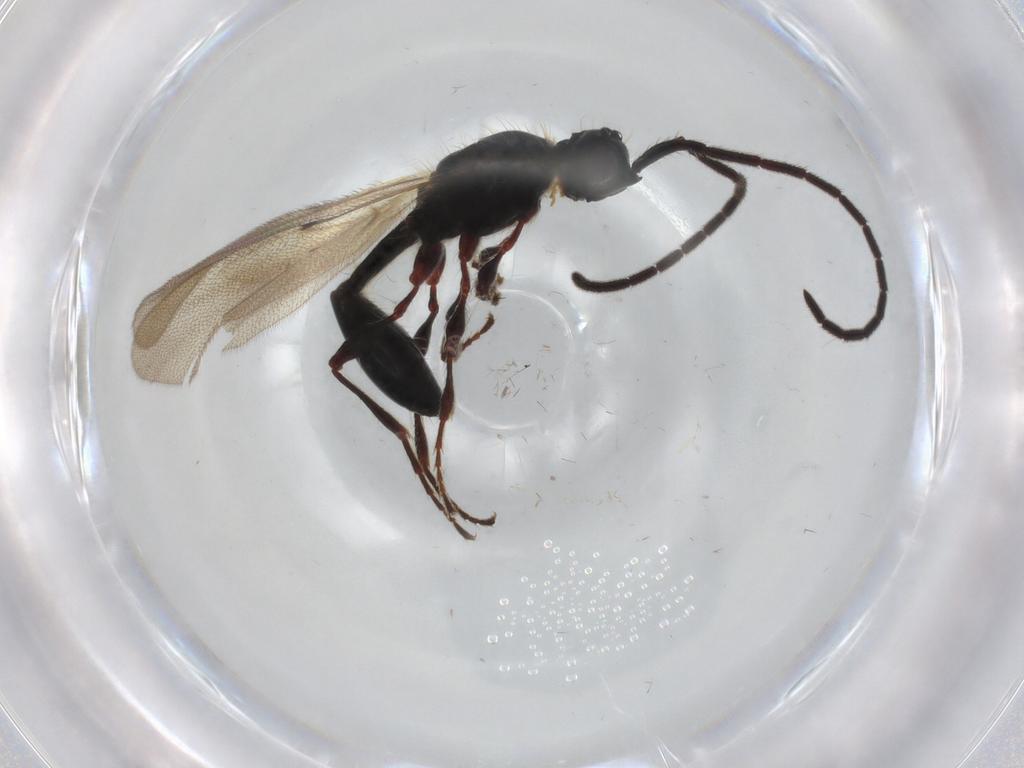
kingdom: Animalia
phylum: Arthropoda
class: Insecta
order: Hymenoptera
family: Diapriidae
